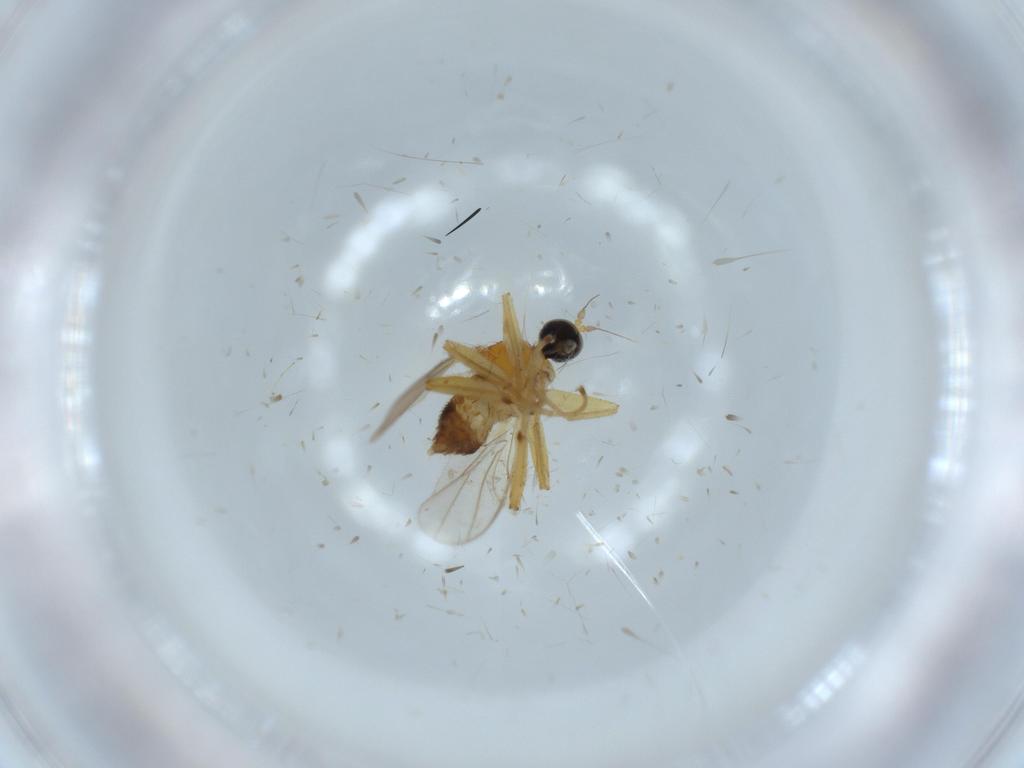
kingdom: Animalia
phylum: Arthropoda
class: Insecta
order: Diptera
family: Hybotidae
